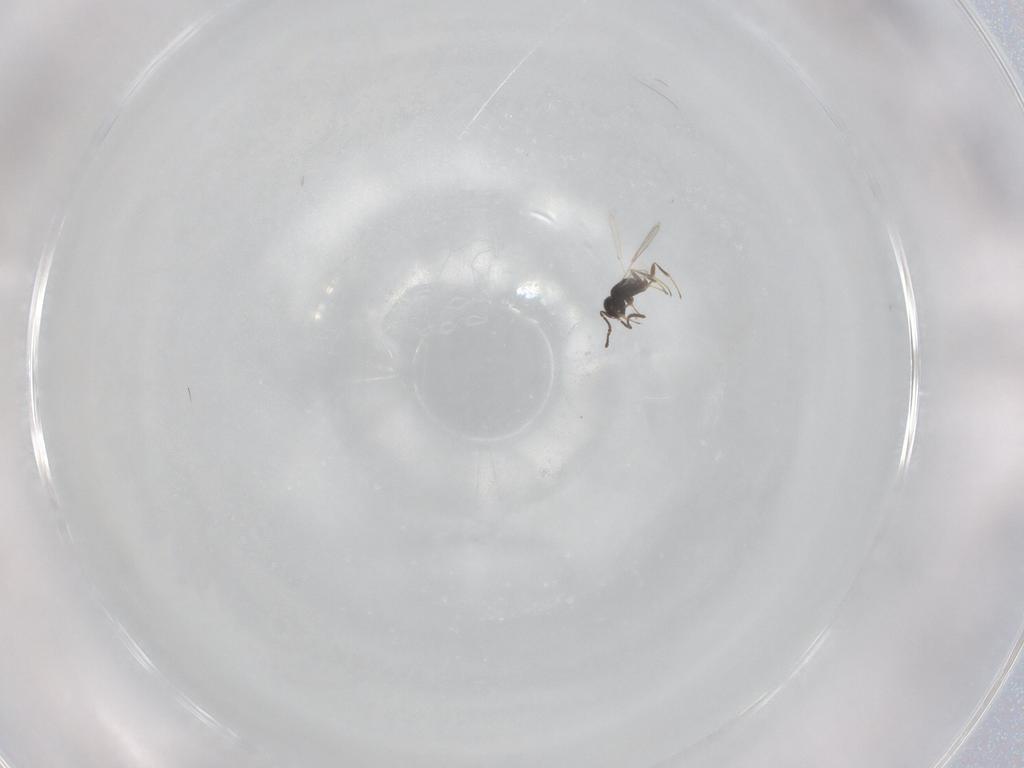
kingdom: Animalia
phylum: Arthropoda
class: Insecta
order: Hymenoptera
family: Scelionidae
